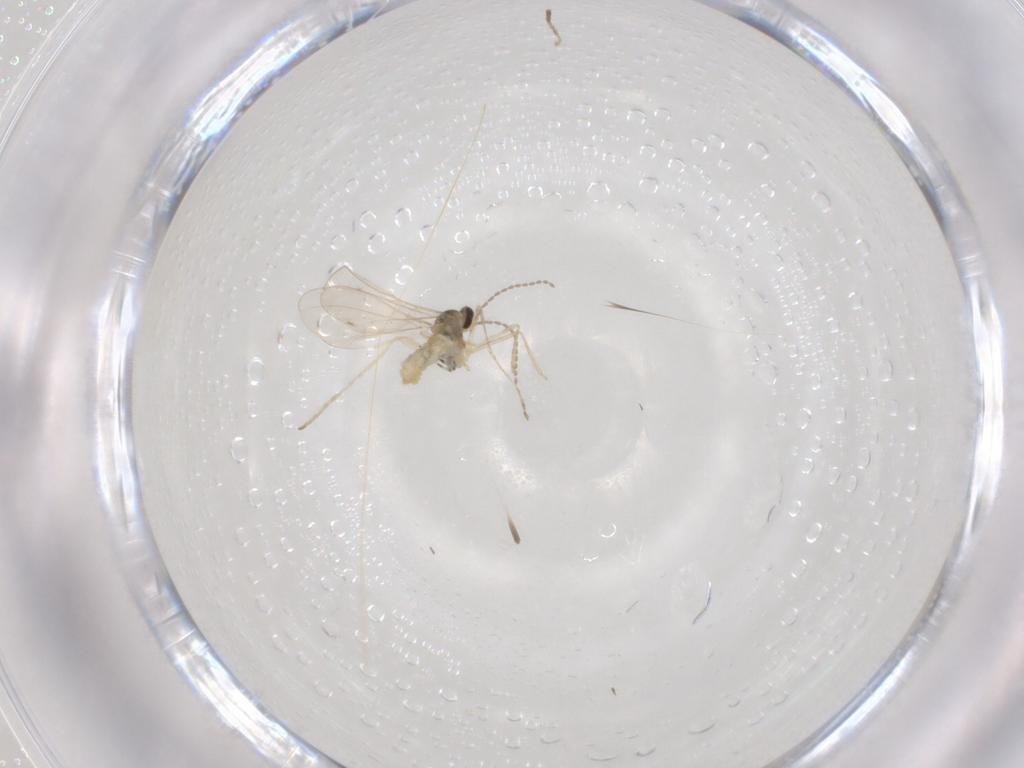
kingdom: Animalia
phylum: Arthropoda
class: Insecta
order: Diptera
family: Cecidomyiidae
